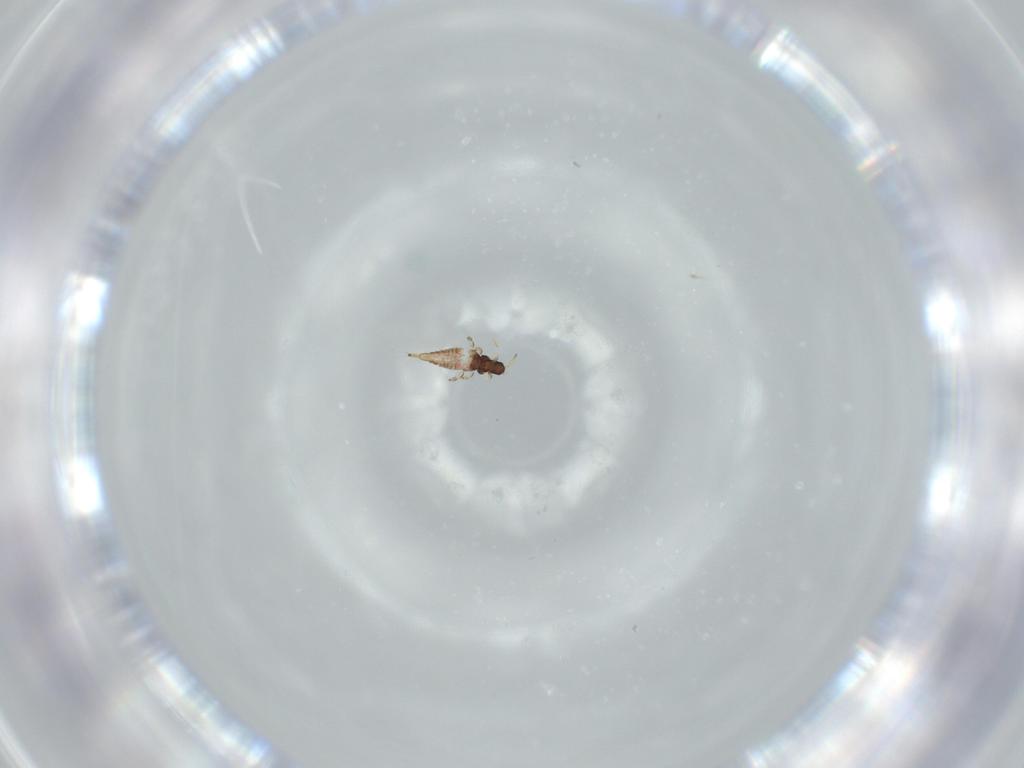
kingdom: Animalia
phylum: Arthropoda
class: Insecta
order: Thysanoptera
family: Phlaeothripidae
